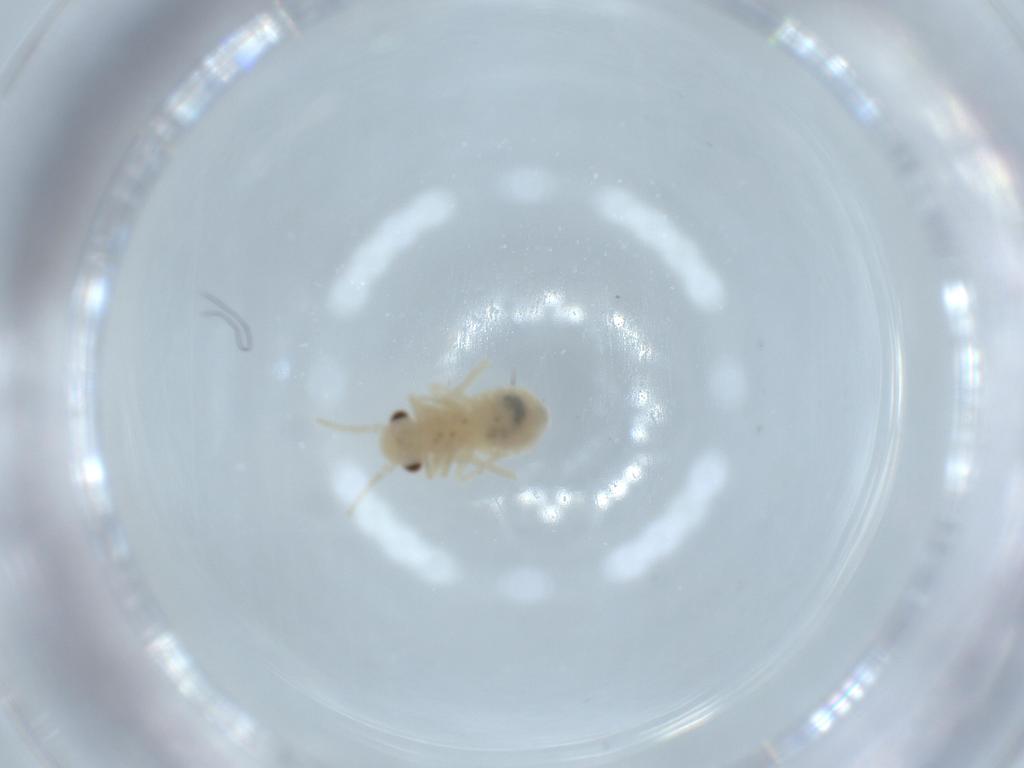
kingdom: Animalia
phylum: Arthropoda
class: Insecta
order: Psocodea
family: Caeciliusidae
